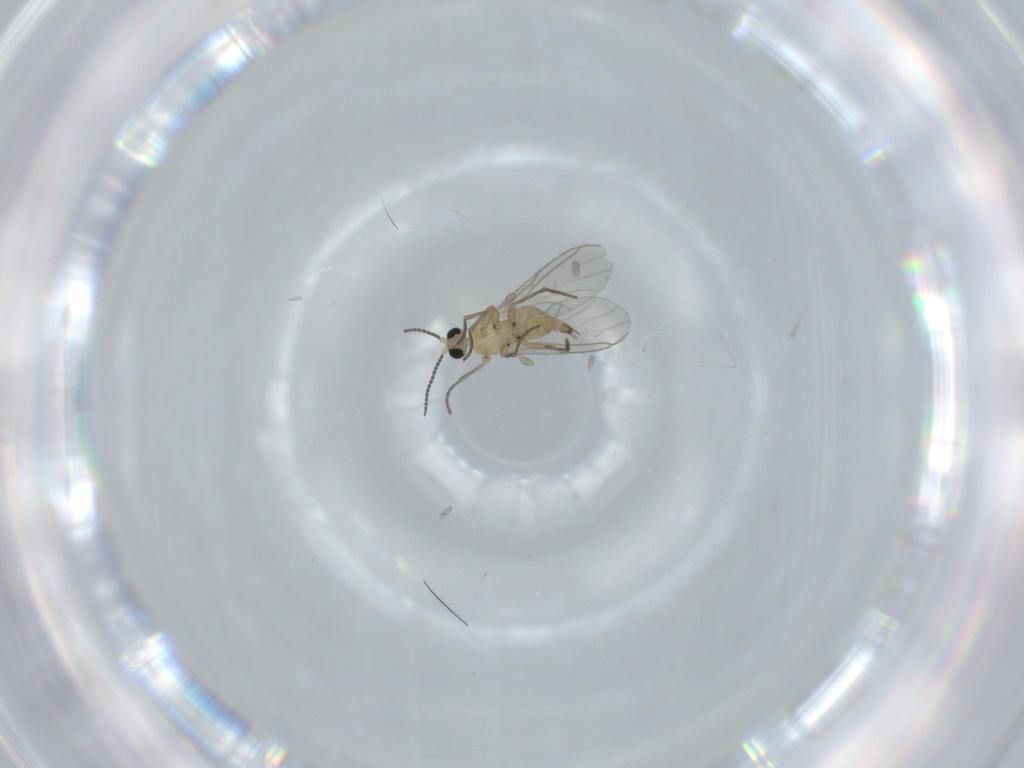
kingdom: Animalia
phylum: Arthropoda
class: Insecta
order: Diptera
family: Sciaridae
